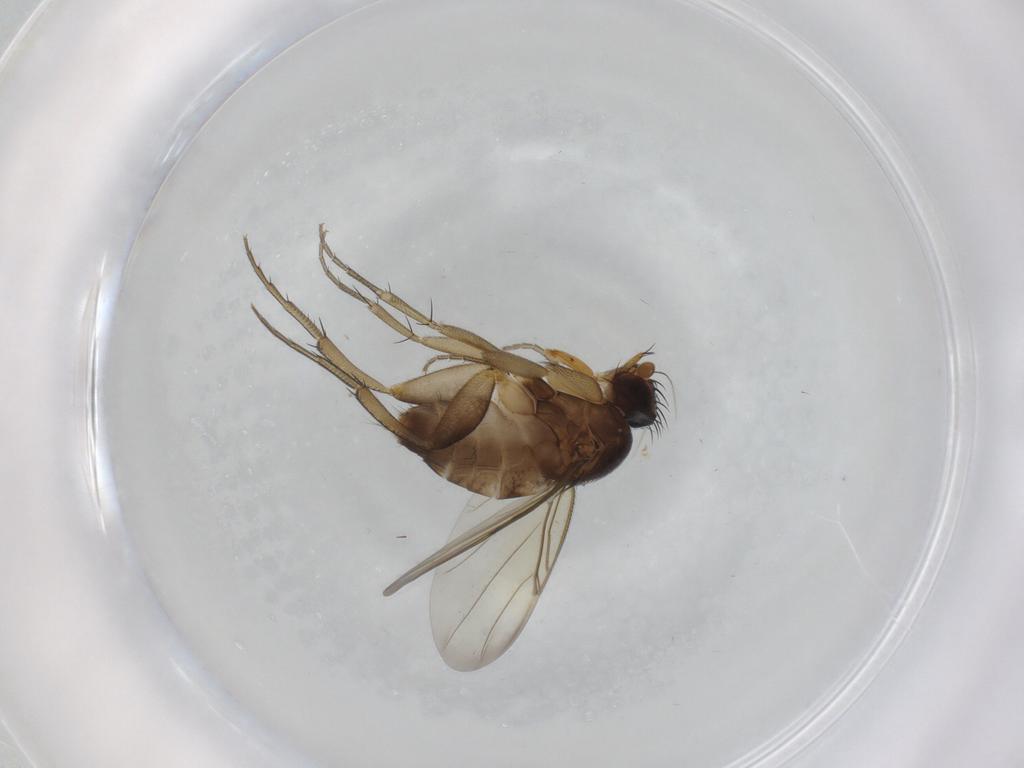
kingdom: Animalia
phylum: Arthropoda
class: Insecta
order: Diptera
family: Phoridae
